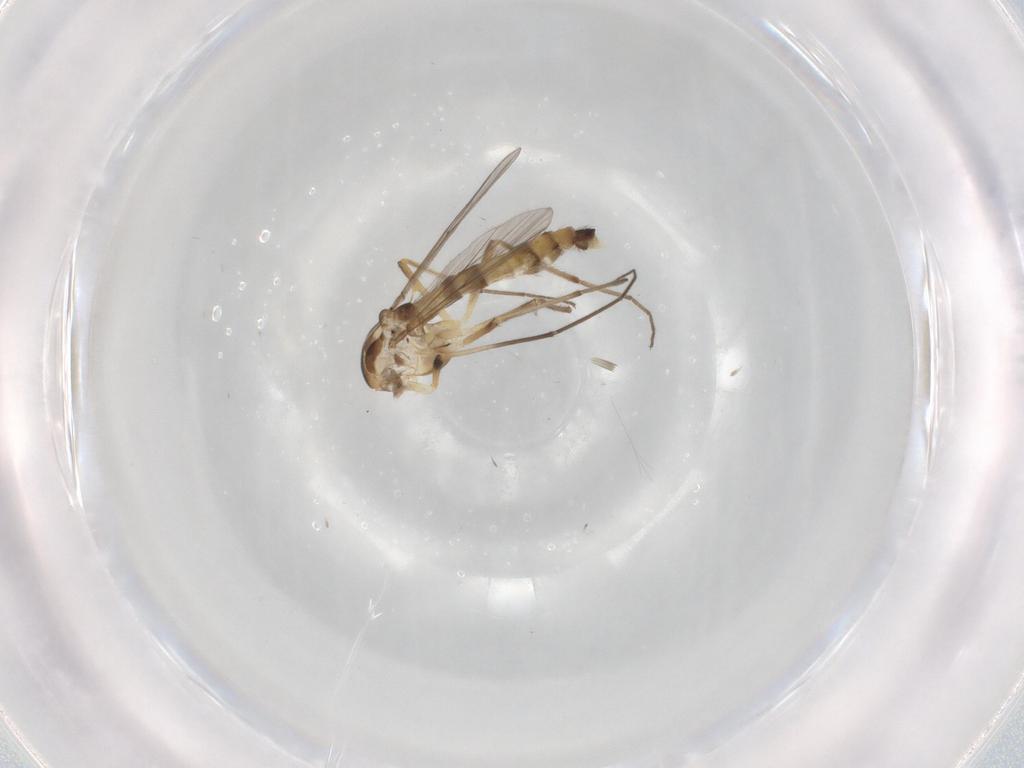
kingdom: Animalia
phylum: Arthropoda
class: Insecta
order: Diptera
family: Chironomidae
